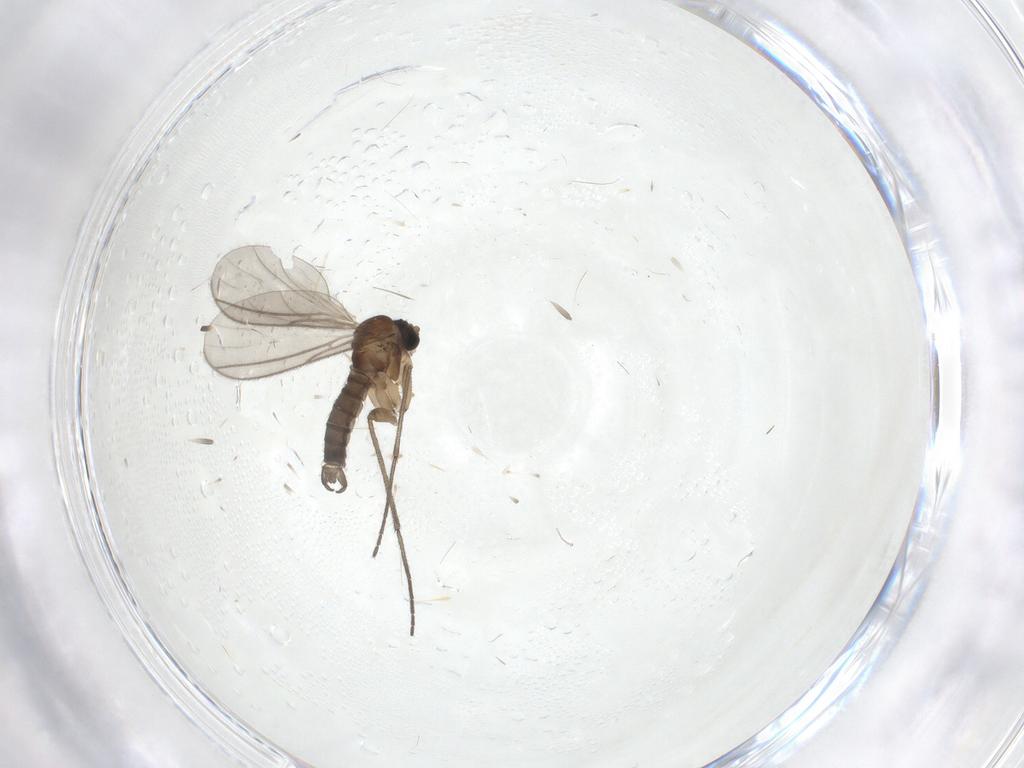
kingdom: Animalia
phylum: Arthropoda
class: Insecta
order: Diptera
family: Sciaridae
